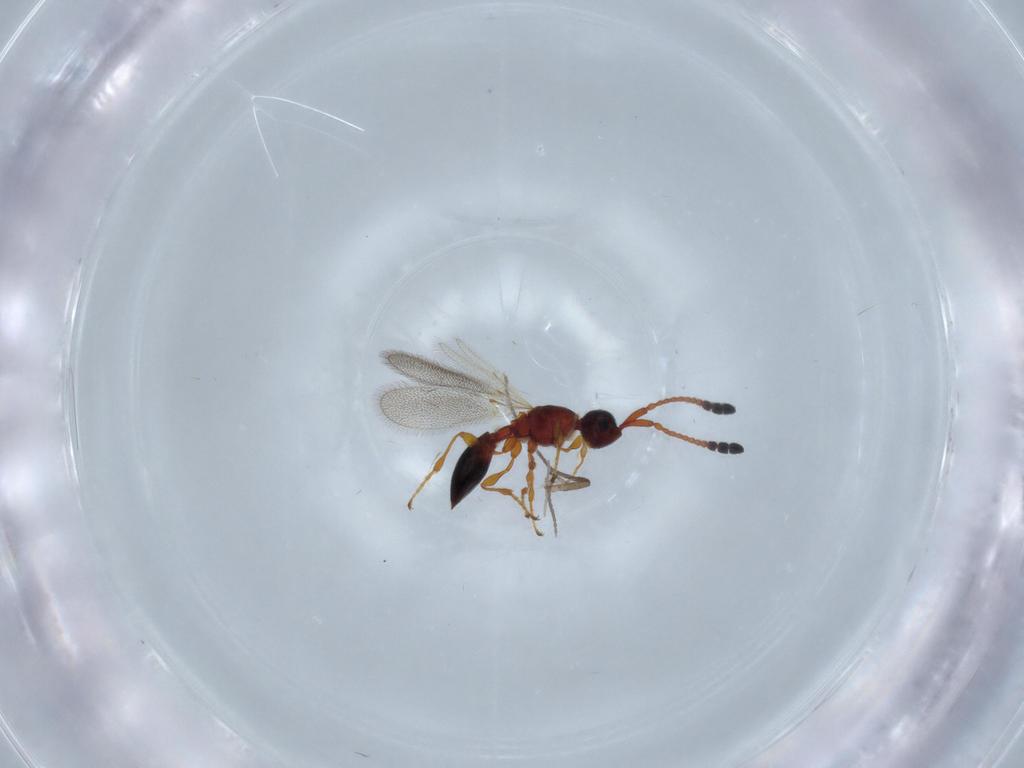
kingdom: Animalia
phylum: Arthropoda
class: Insecta
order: Hymenoptera
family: Diapriidae
